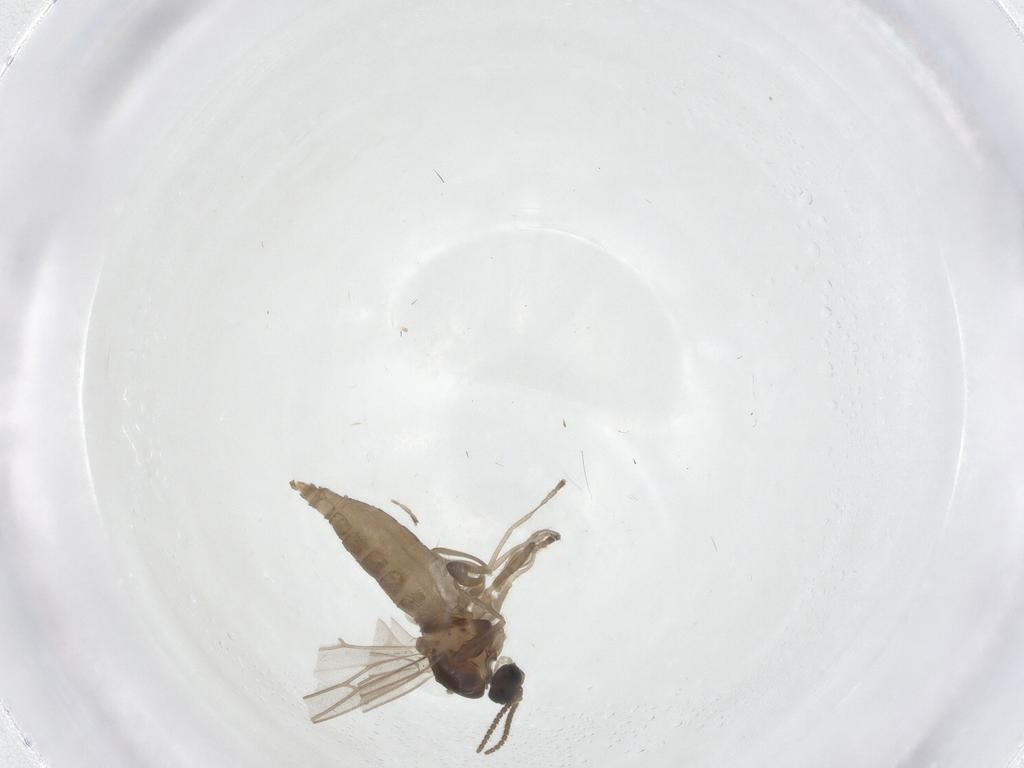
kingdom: Animalia
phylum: Arthropoda
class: Insecta
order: Diptera
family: Cecidomyiidae
